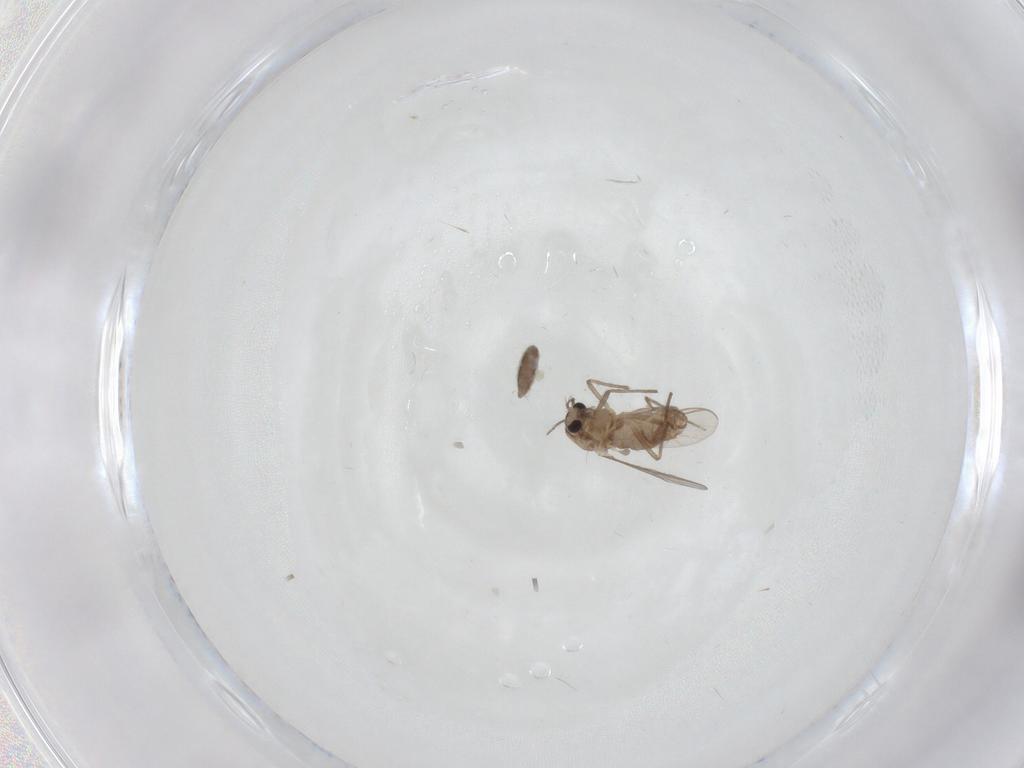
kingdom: Animalia
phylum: Arthropoda
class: Insecta
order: Diptera
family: Chironomidae
